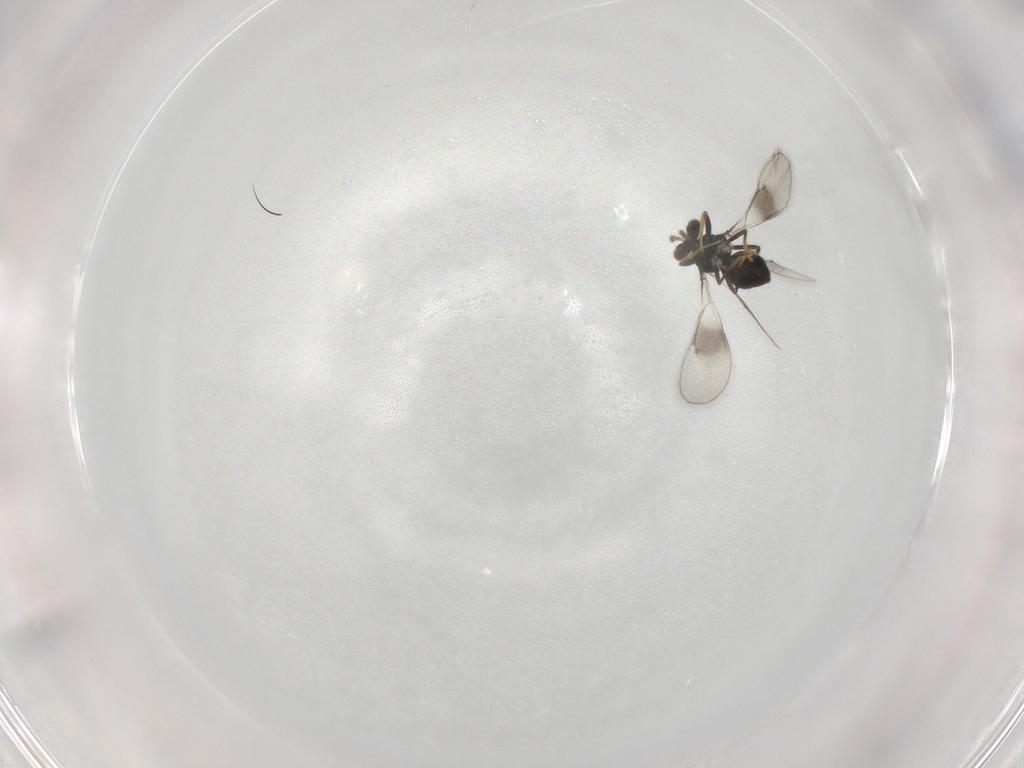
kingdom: Animalia
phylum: Arthropoda
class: Insecta
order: Hymenoptera
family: Eulophidae
